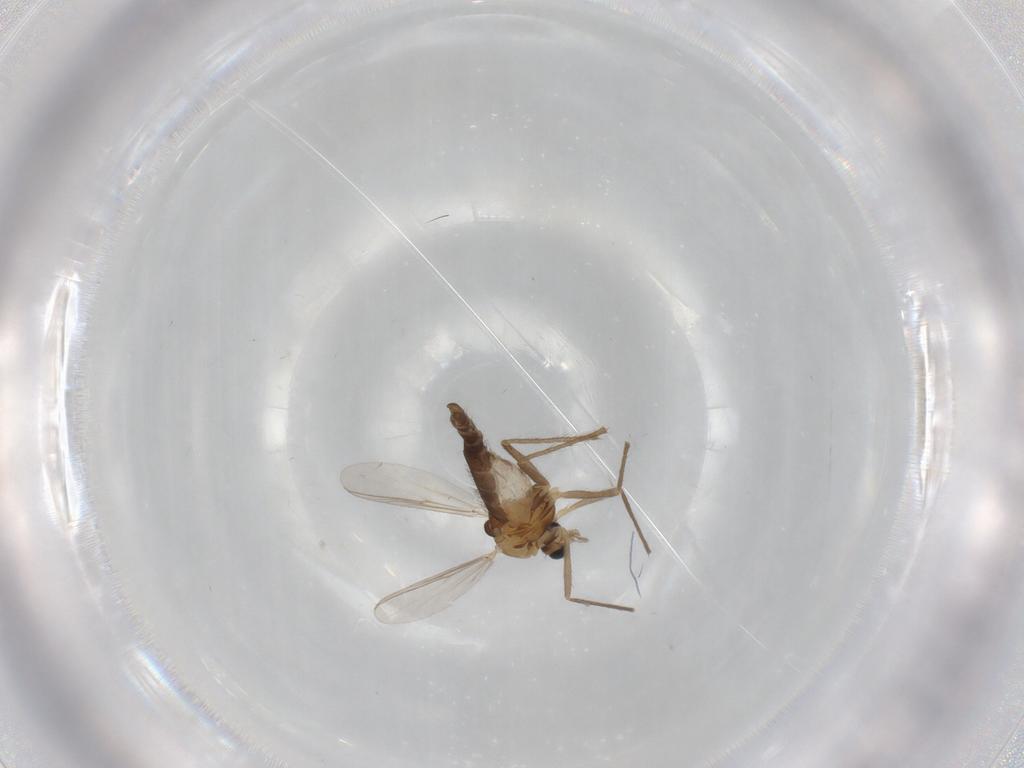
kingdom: Animalia
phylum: Arthropoda
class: Insecta
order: Diptera
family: Chironomidae
